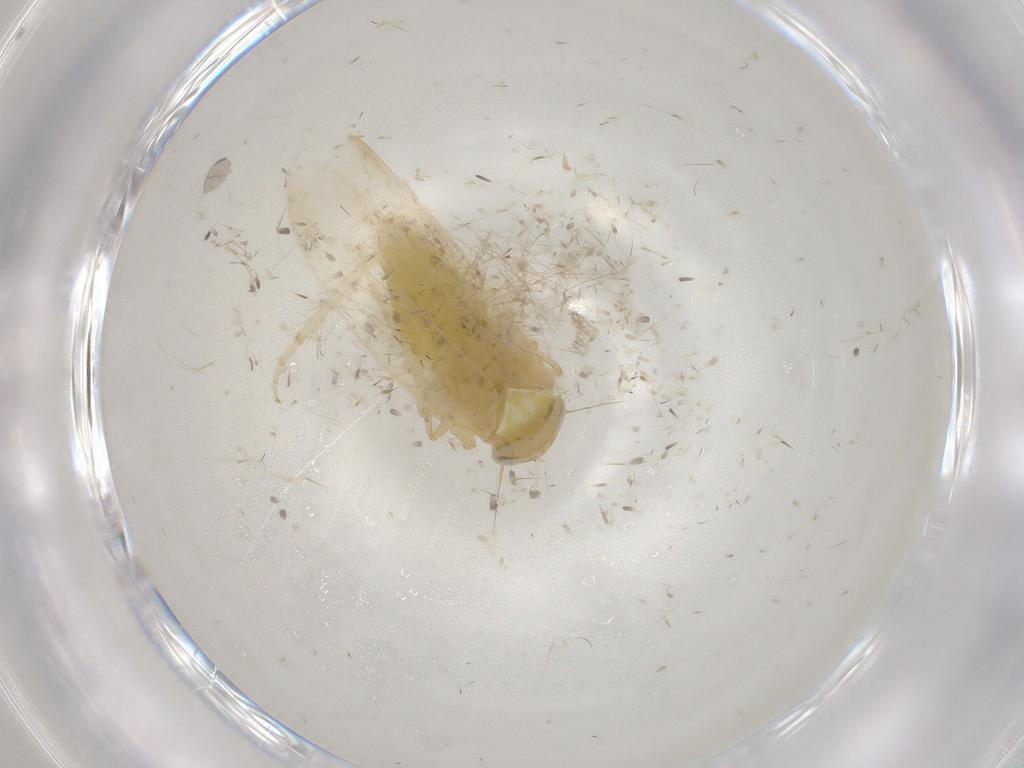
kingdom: Animalia
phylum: Arthropoda
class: Insecta
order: Hemiptera
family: Cicadellidae
